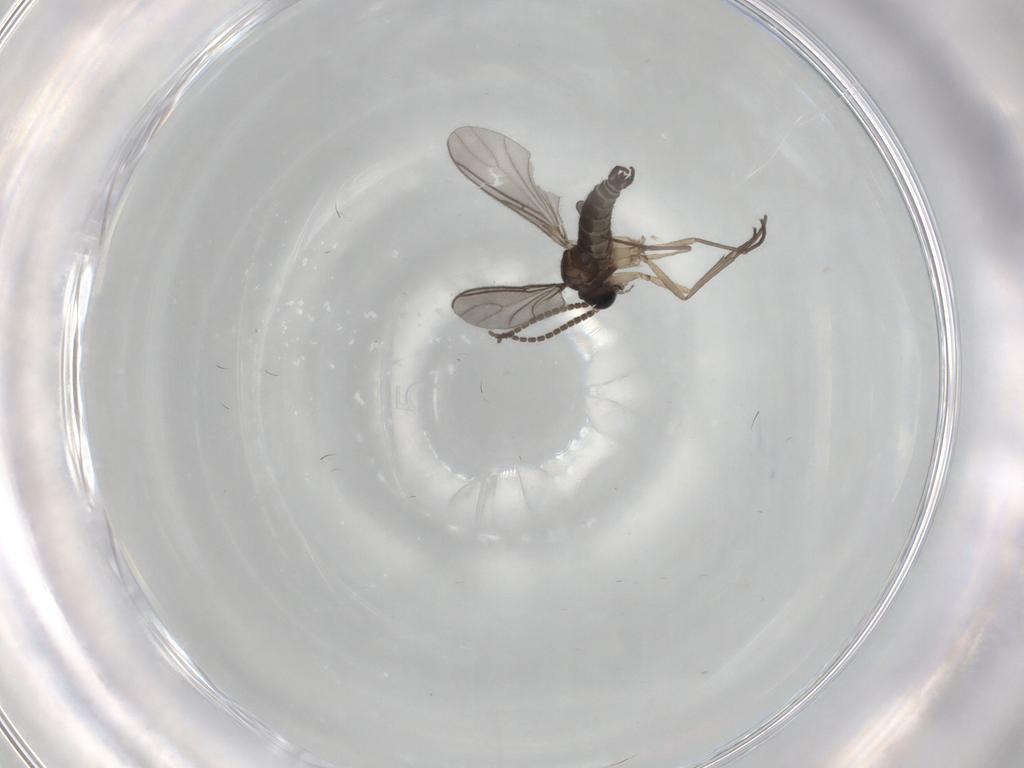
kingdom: Animalia
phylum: Arthropoda
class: Insecta
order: Diptera
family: Sciaridae
